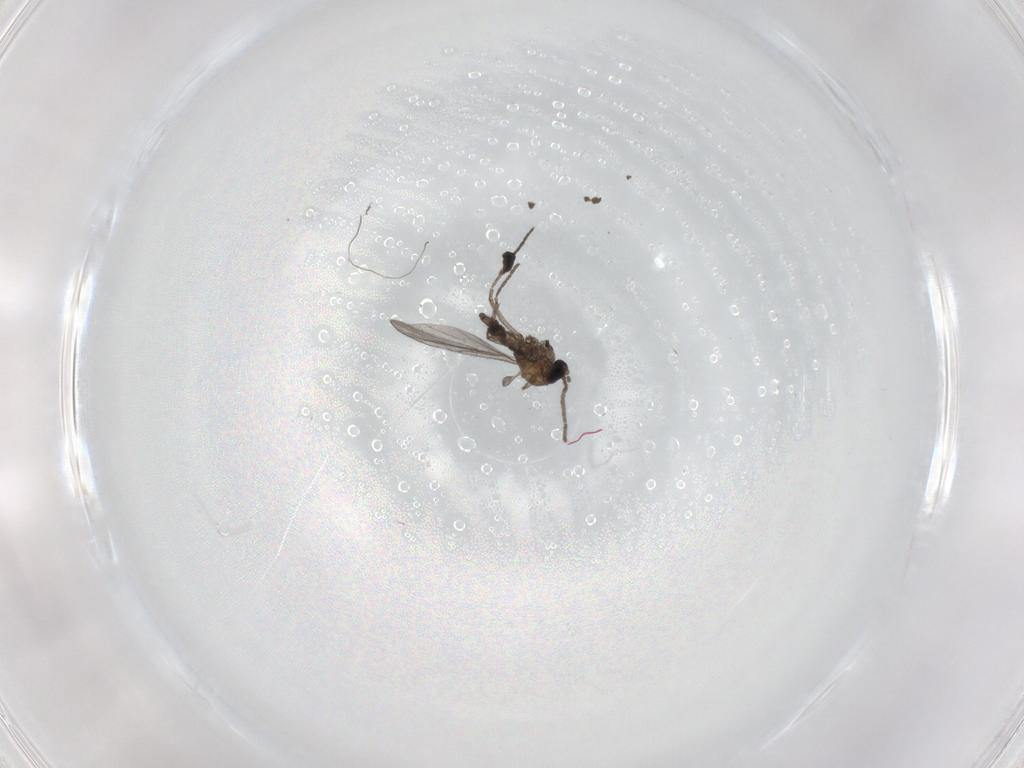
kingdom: Animalia
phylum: Arthropoda
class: Insecta
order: Diptera
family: Sciaridae
